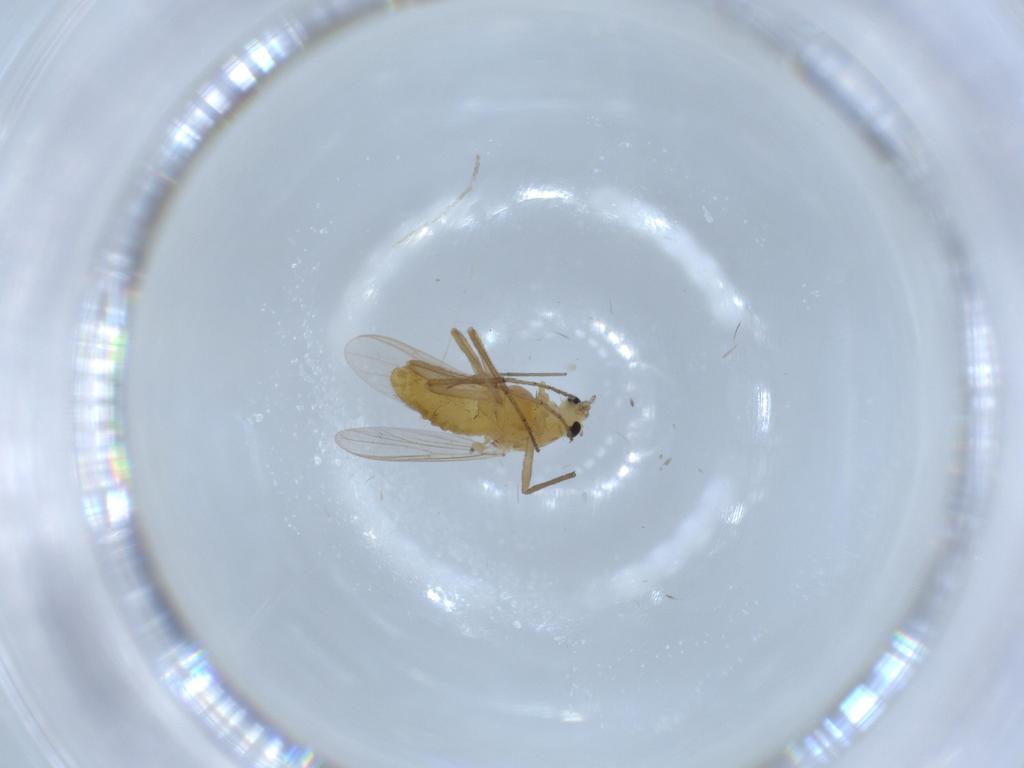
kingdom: Animalia
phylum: Arthropoda
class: Insecta
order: Diptera
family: Chironomidae
